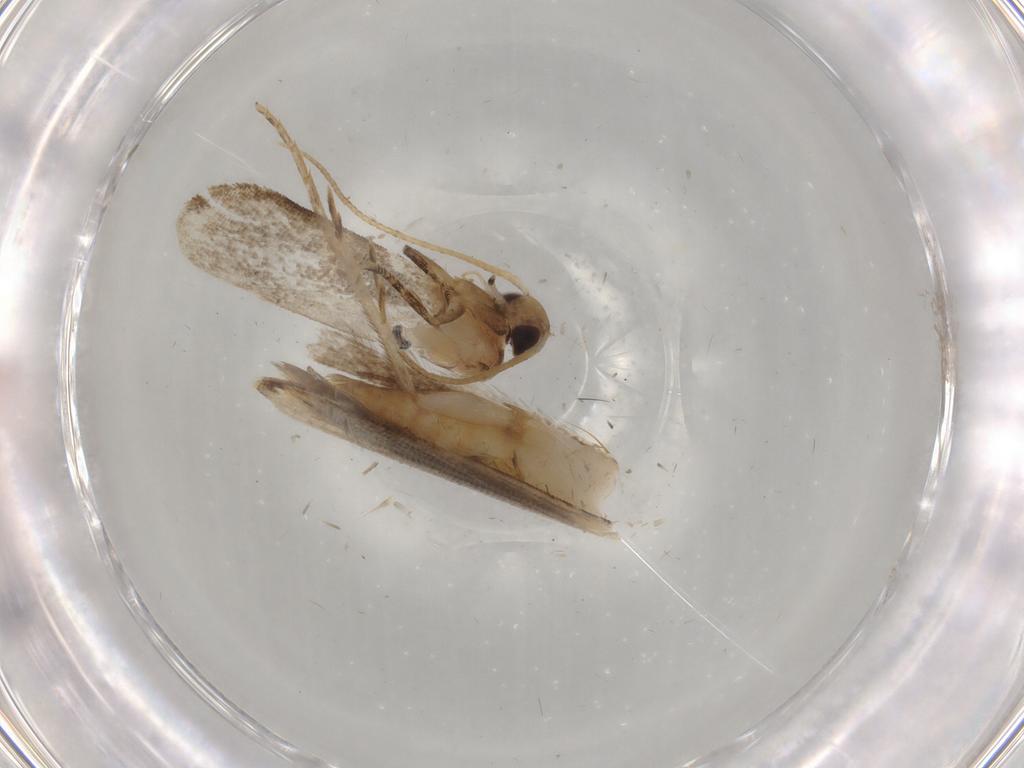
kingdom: Animalia
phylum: Arthropoda
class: Insecta
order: Lepidoptera
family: Gelechiidae
